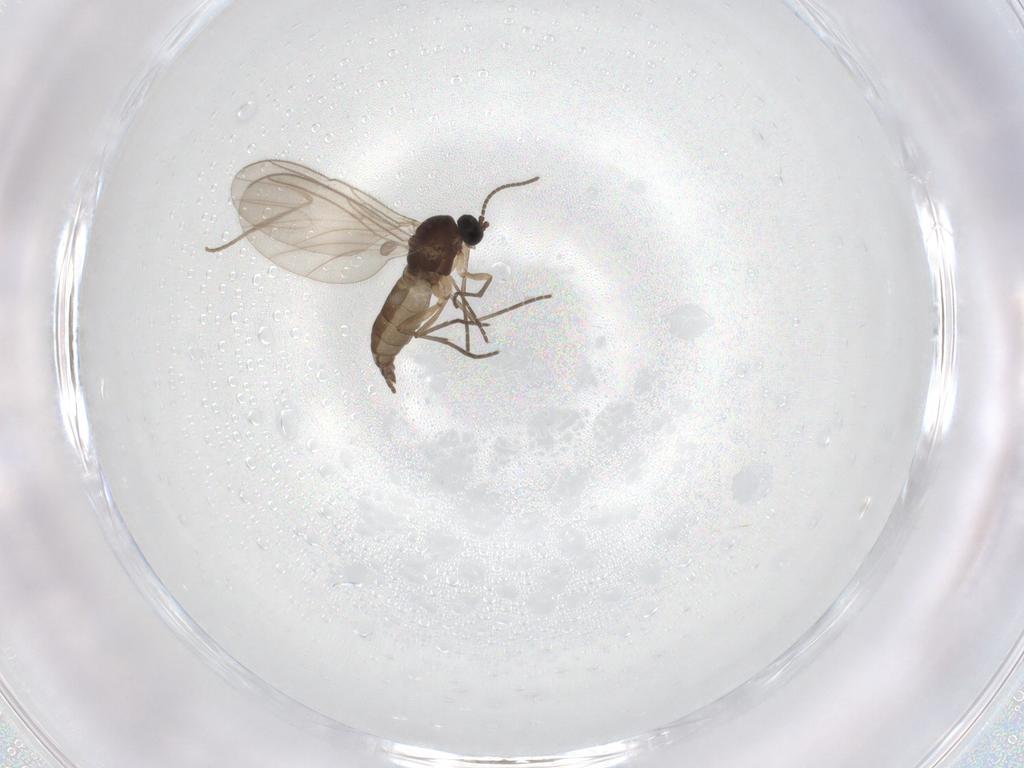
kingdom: Animalia
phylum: Arthropoda
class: Insecta
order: Diptera
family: Sciaridae
